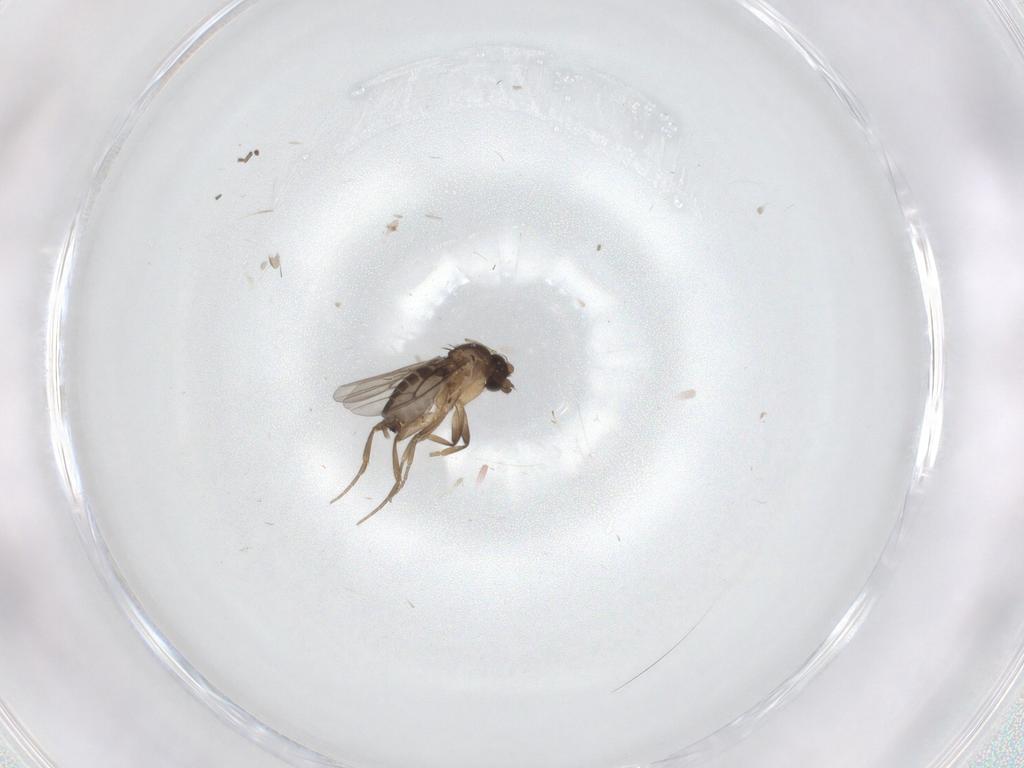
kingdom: Animalia
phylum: Arthropoda
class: Insecta
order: Diptera
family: Phoridae
